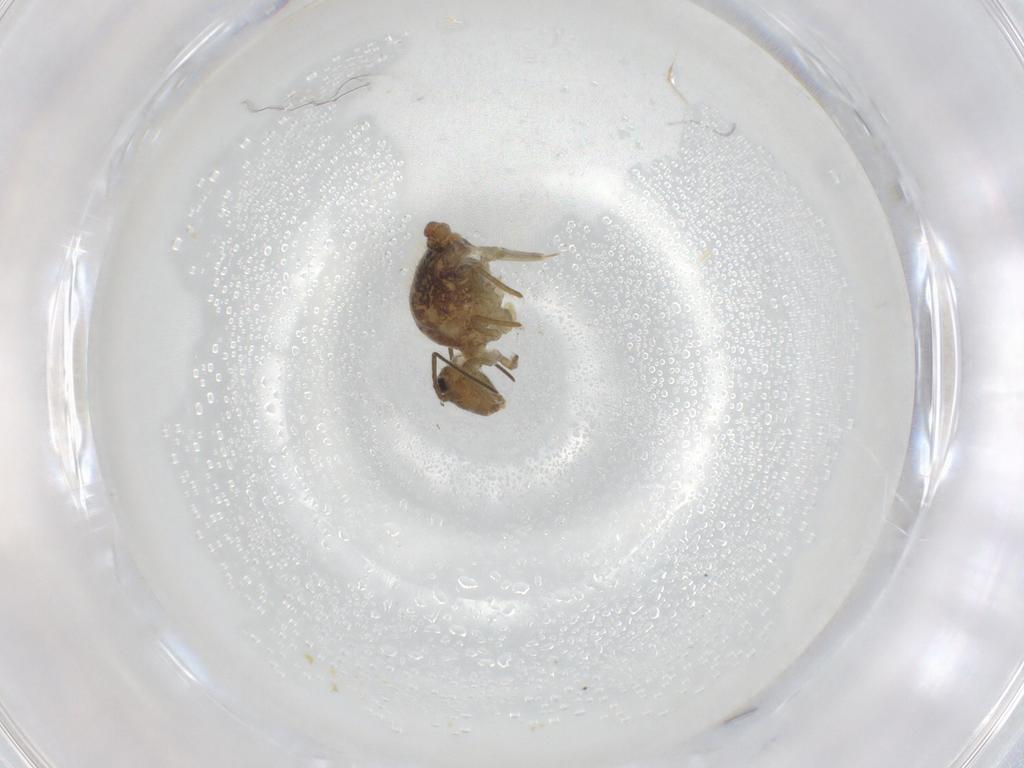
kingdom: Animalia
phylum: Arthropoda
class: Collembola
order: Symphypleona
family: Sminthuridae
